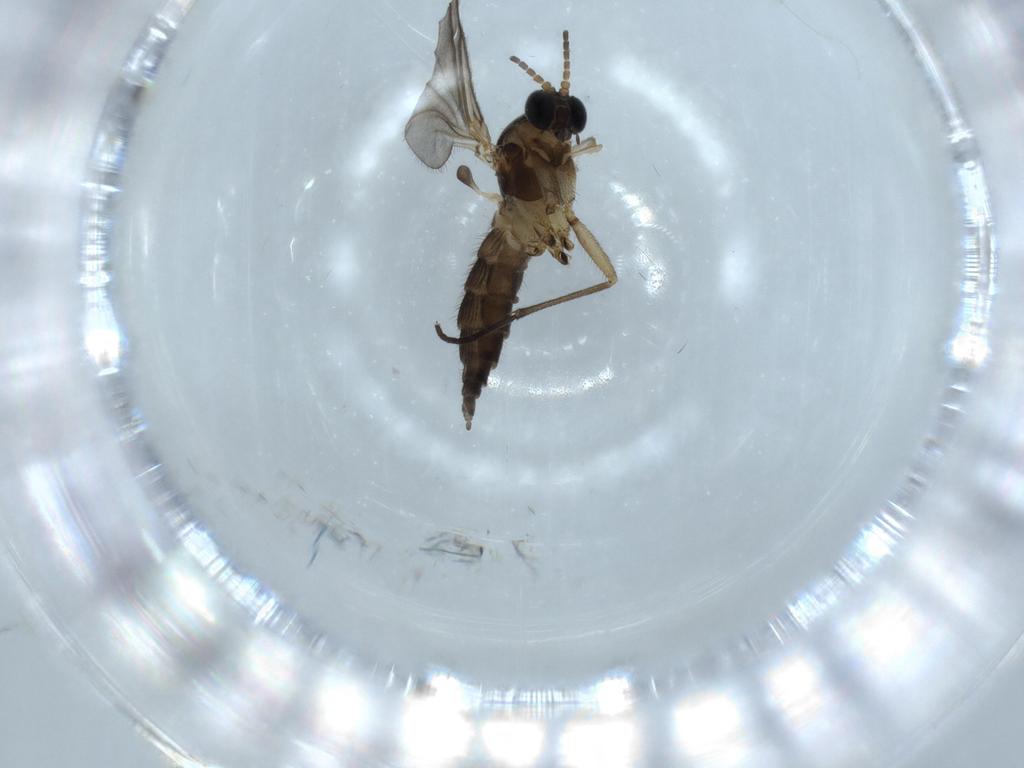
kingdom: Animalia
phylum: Arthropoda
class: Insecta
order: Diptera
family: Sciaridae
